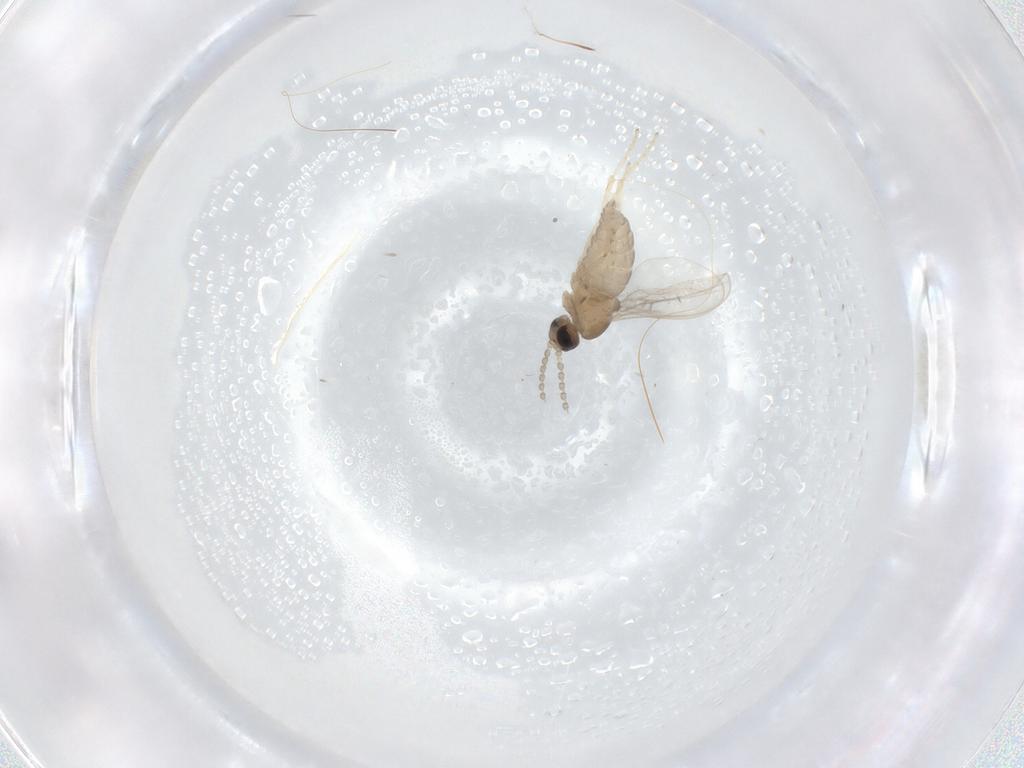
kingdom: Animalia
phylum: Arthropoda
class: Insecta
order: Diptera
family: Cecidomyiidae
